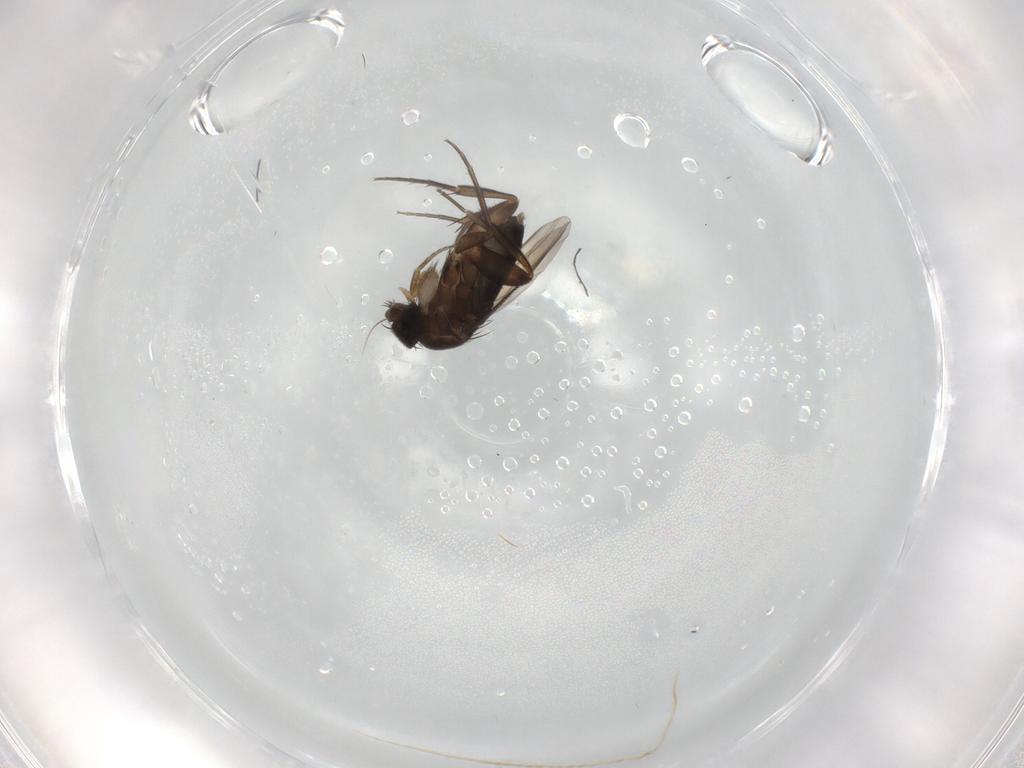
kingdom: Animalia
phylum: Arthropoda
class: Insecta
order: Diptera
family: Phoridae
